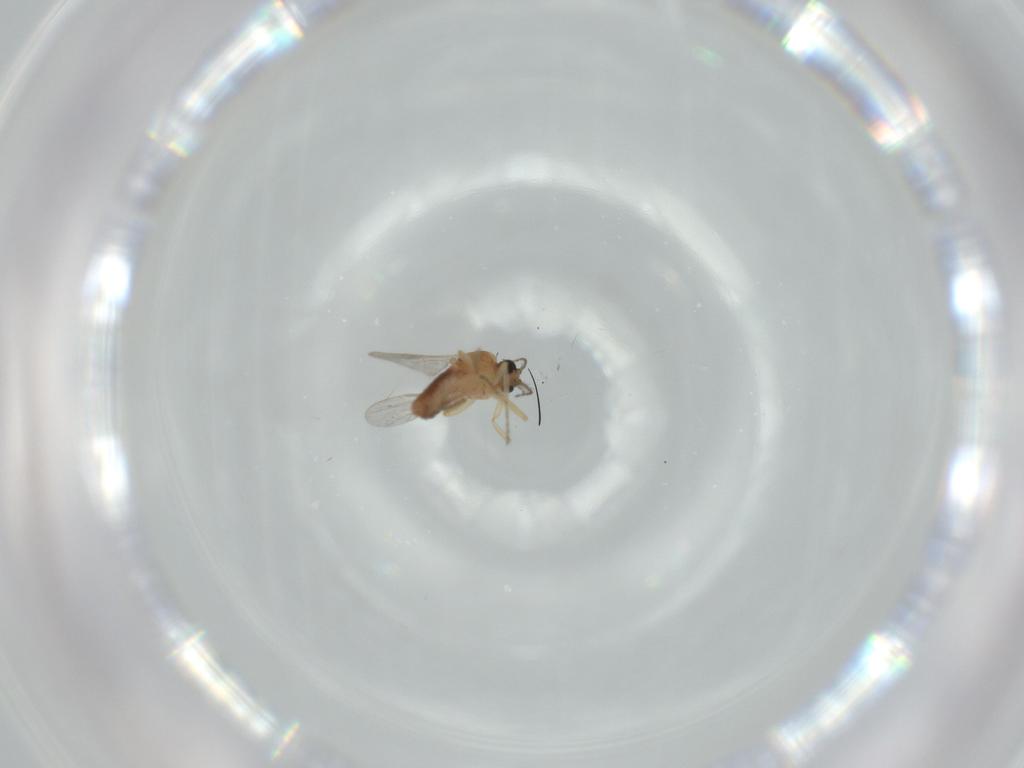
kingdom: Animalia
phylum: Arthropoda
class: Insecta
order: Diptera
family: Ceratopogonidae
